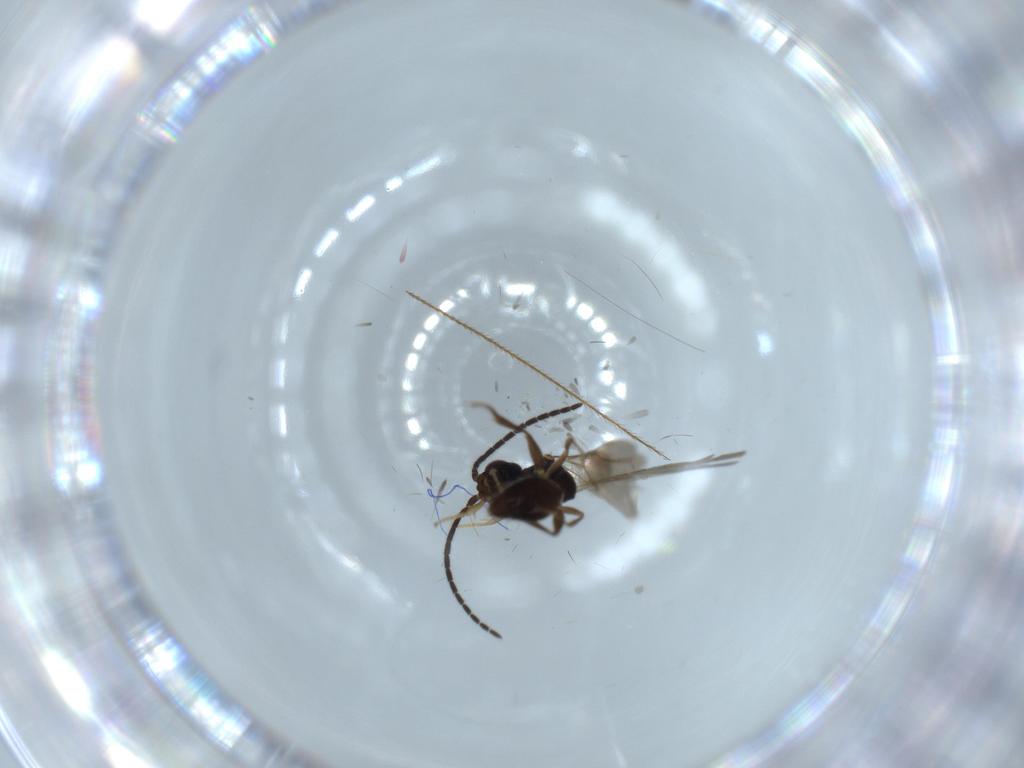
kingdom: Animalia
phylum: Arthropoda
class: Insecta
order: Hymenoptera
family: Bethylidae
